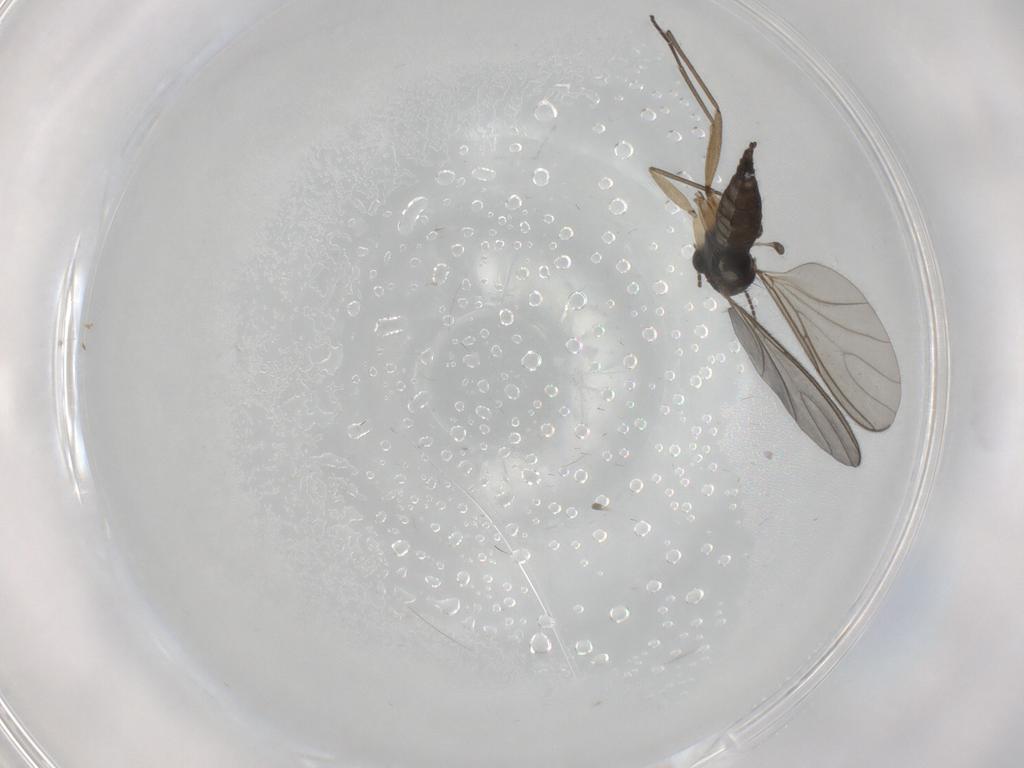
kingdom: Animalia
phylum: Arthropoda
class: Insecta
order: Diptera
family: Sciaridae
